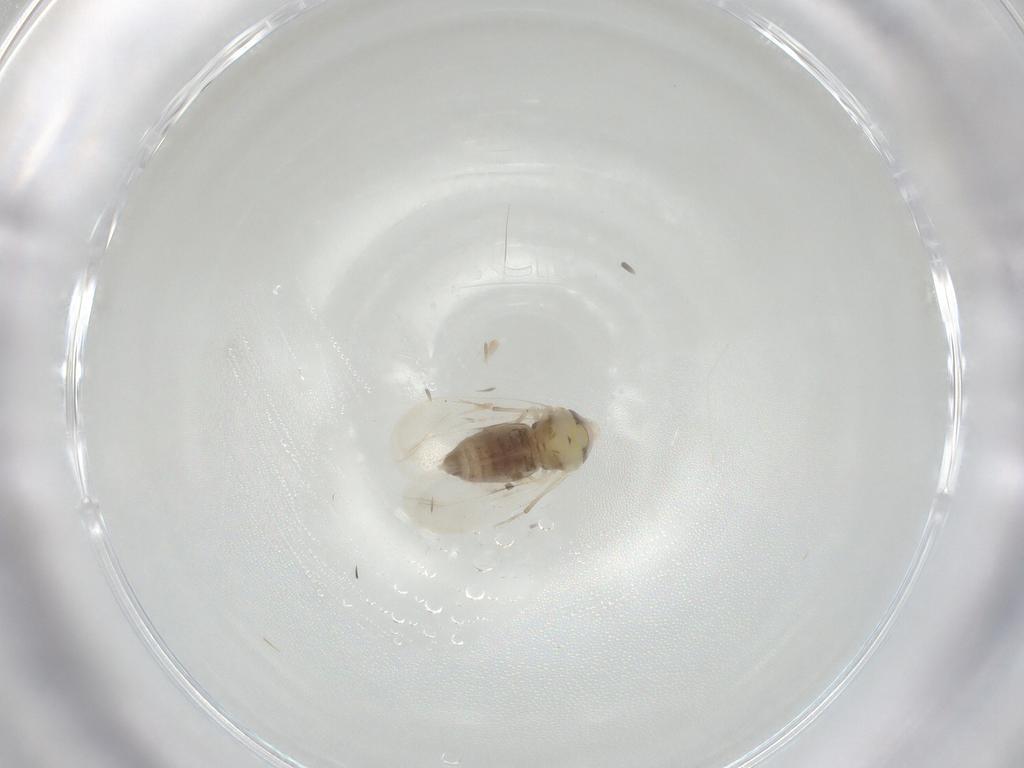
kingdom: Animalia
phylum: Arthropoda
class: Insecta
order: Hemiptera
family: Aleyrodidae
